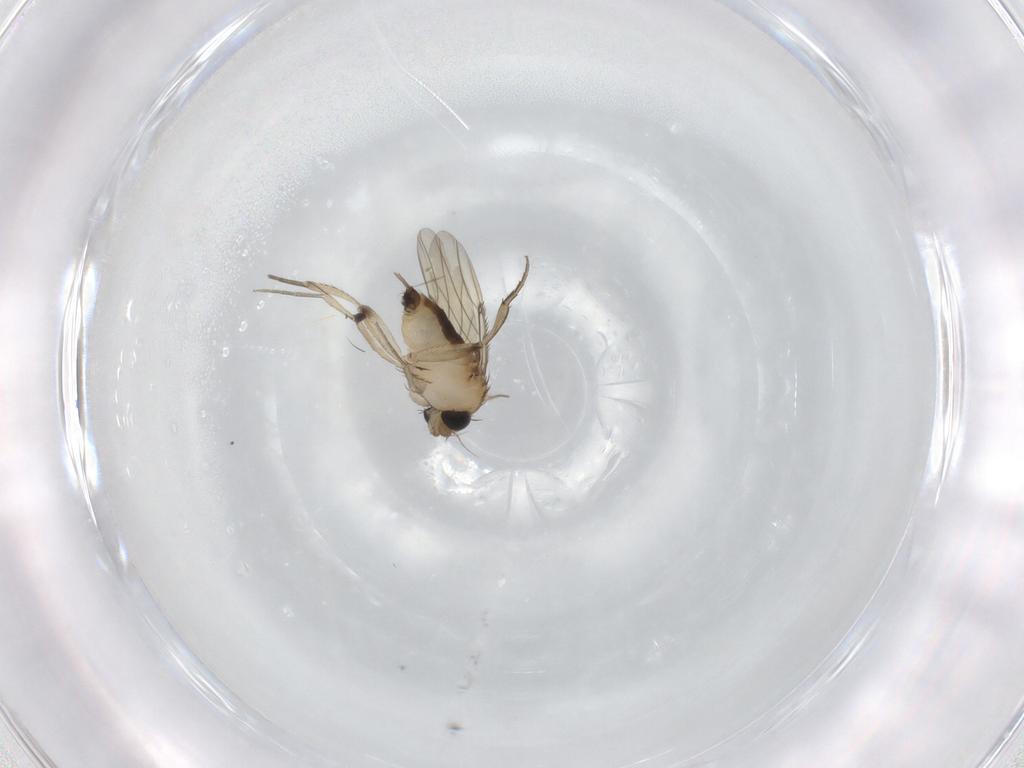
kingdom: Animalia
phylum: Arthropoda
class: Insecta
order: Diptera
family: Phoridae
